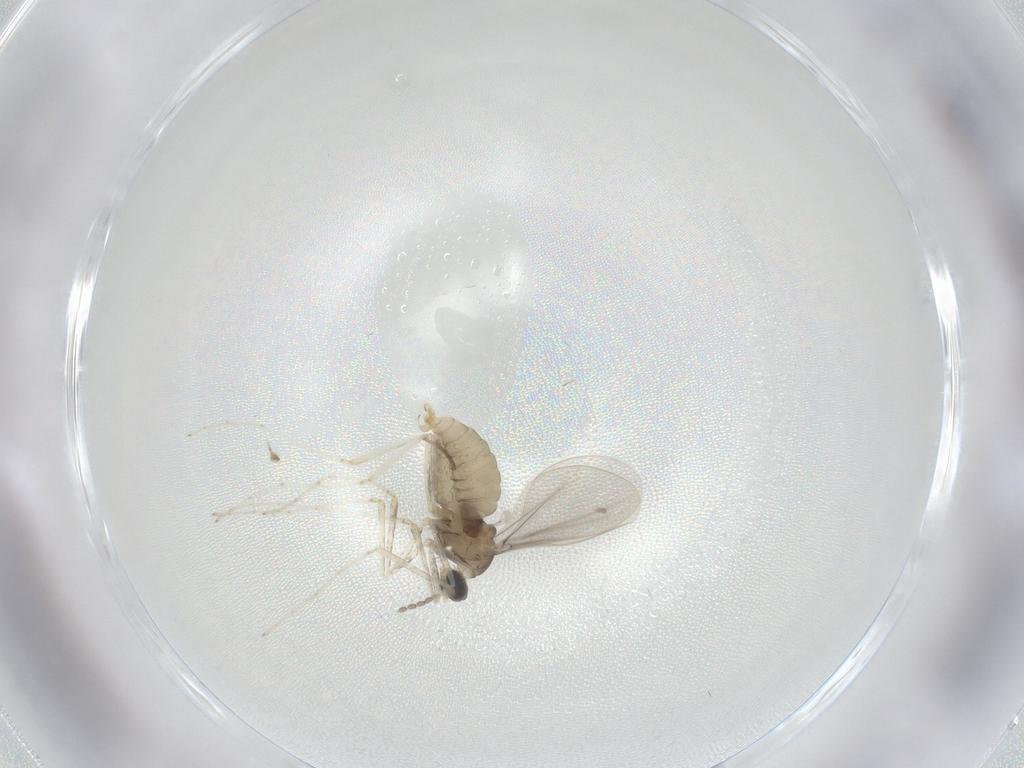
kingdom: Animalia
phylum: Arthropoda
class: Insecta
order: Diptera
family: Cecidomyiidae
